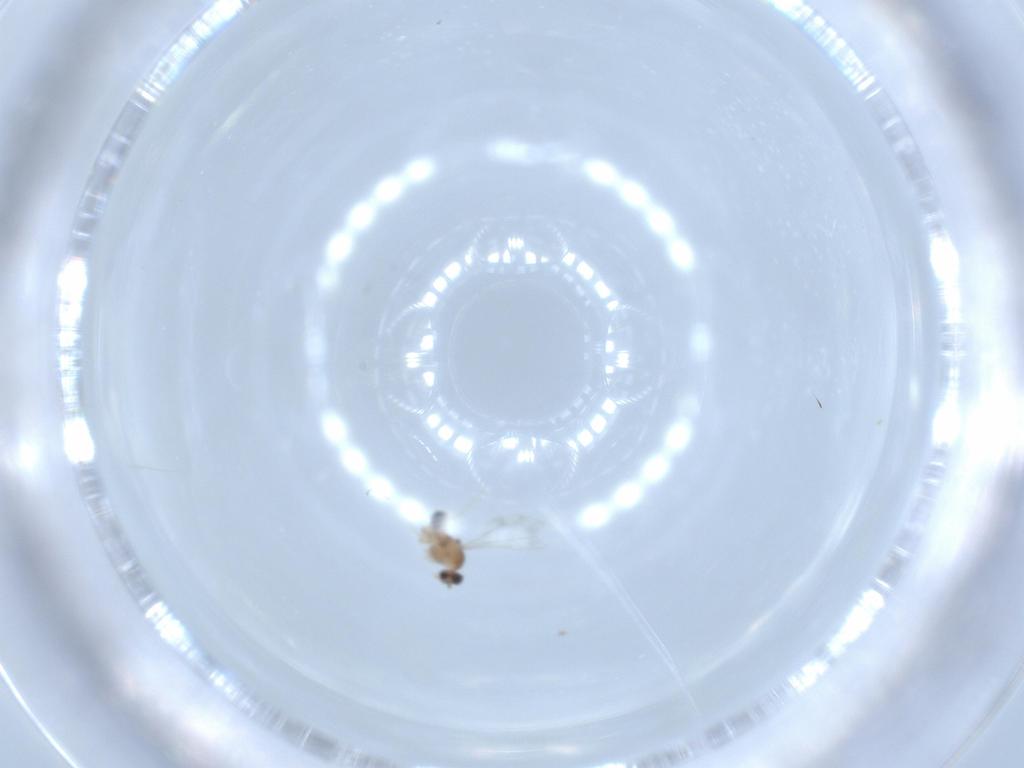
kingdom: Animalia
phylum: Arthropoda
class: Insecta
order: Diptera
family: Cecidomyiidae
